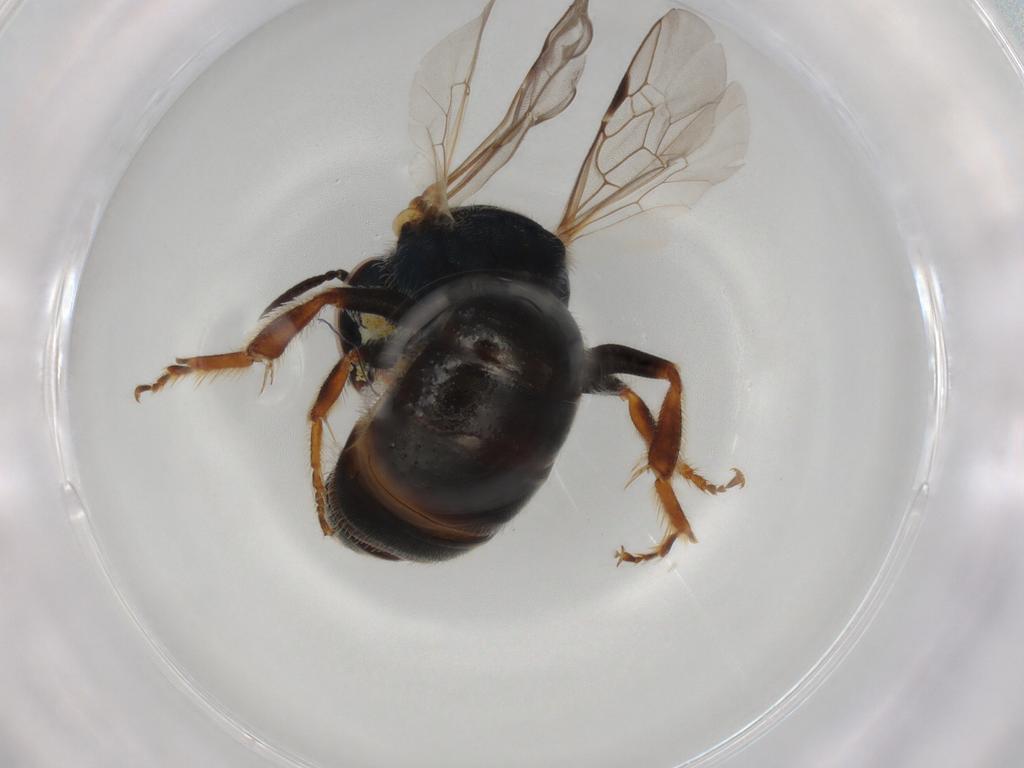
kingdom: Animalia
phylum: Arthropoda
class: Insecta
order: Hymenoptera
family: Halictidae
